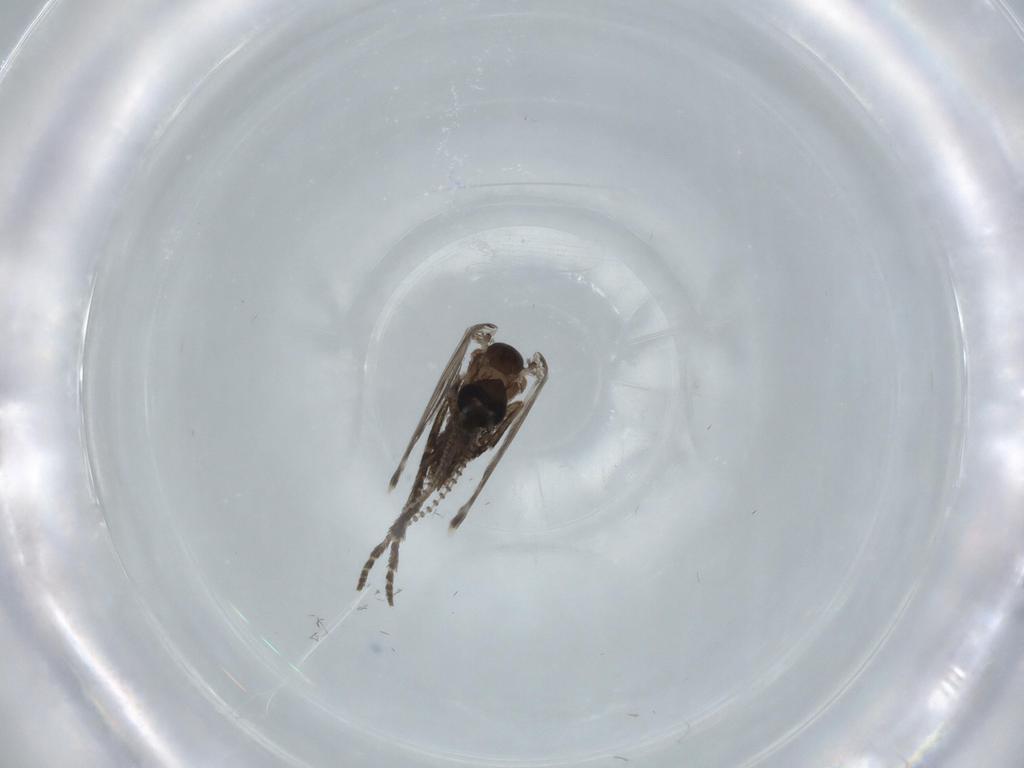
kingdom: Animalia
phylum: Arthropoda
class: Insecta
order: Diptera
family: Psychodidae
